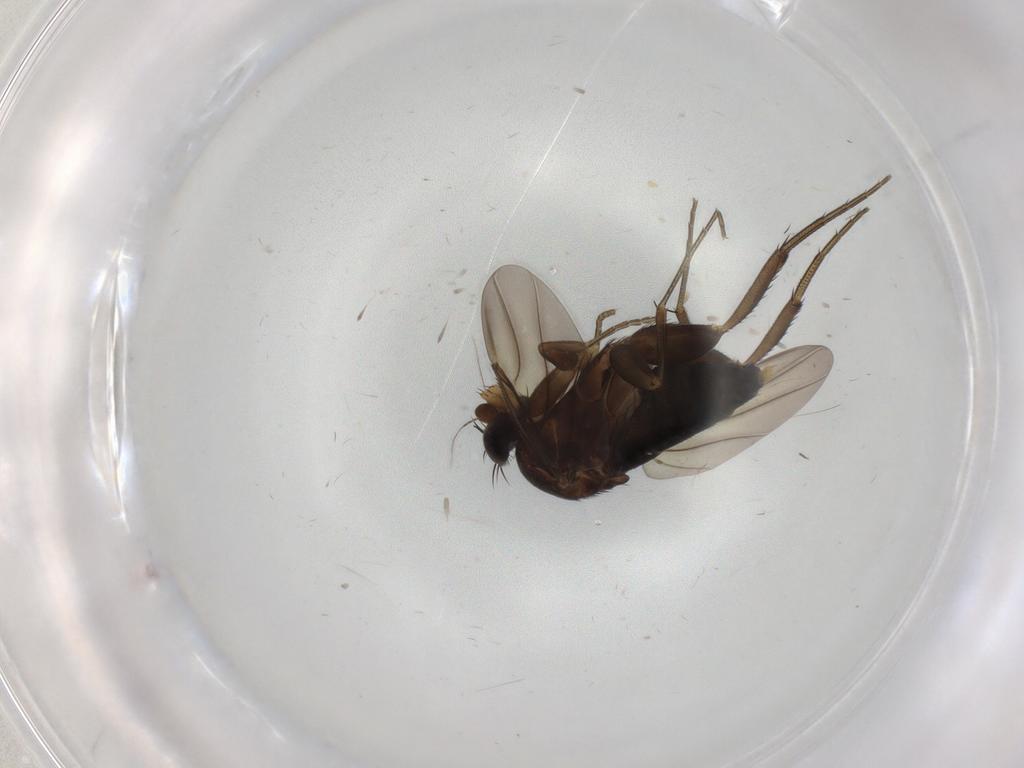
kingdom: Animalia
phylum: Arthropoda
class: Insecta
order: Diptera
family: Phoridae
